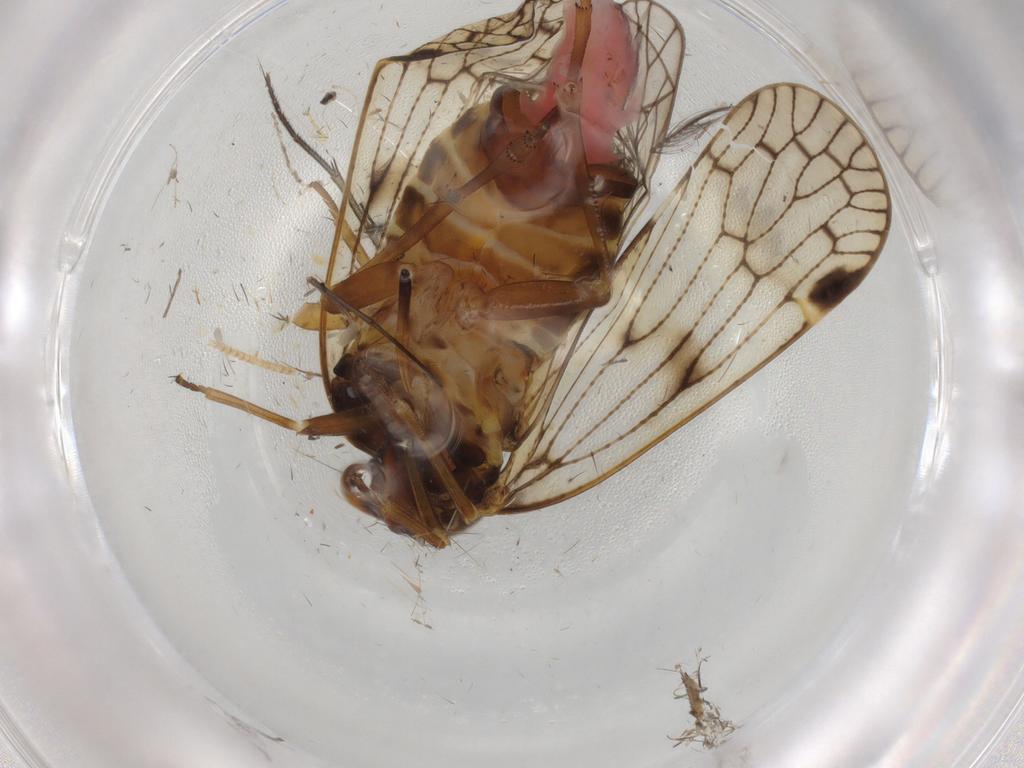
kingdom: Animalia
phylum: Arthropoda
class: Insecta
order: Hemiptera
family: Cixiidae
